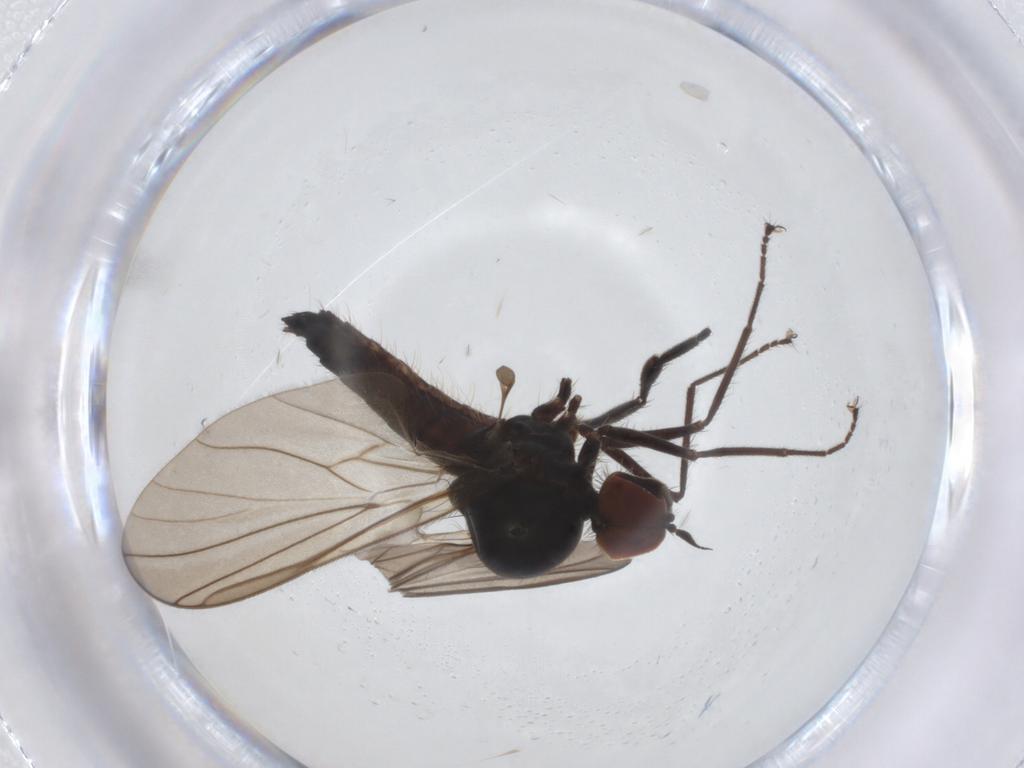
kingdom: Animalia
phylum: Arthropoda
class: Insecta
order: Diptera
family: Hybotidae
